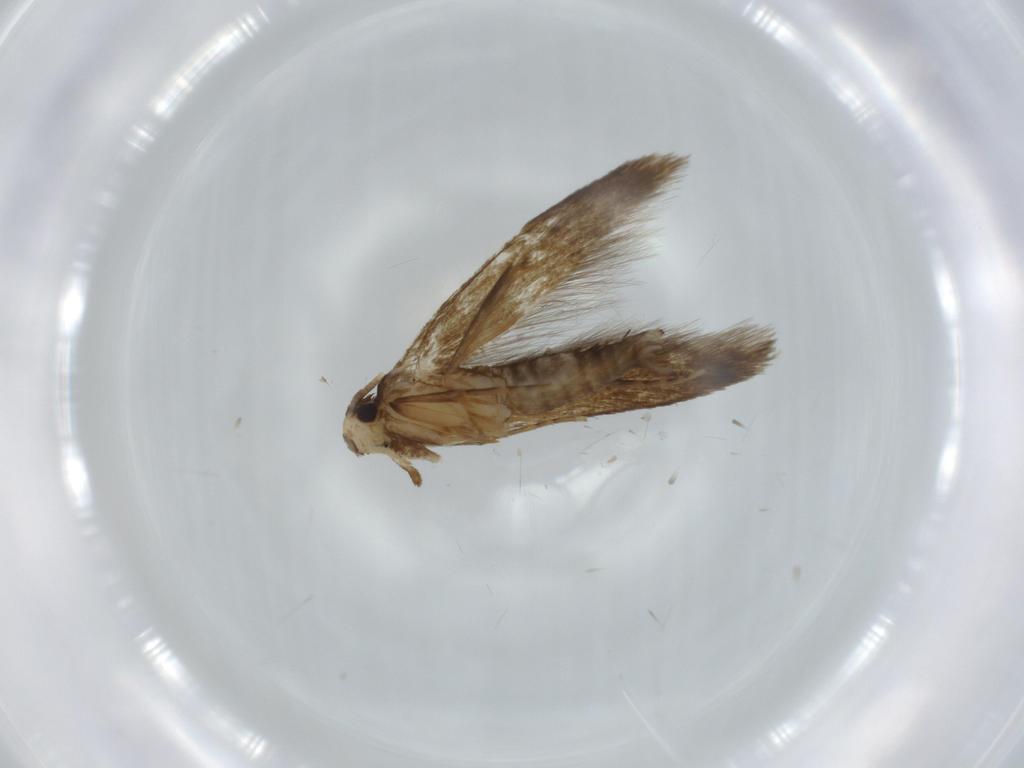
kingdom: Animalia
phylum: Arthropoda
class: Insecta
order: Lepidoptera
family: Tineidae
